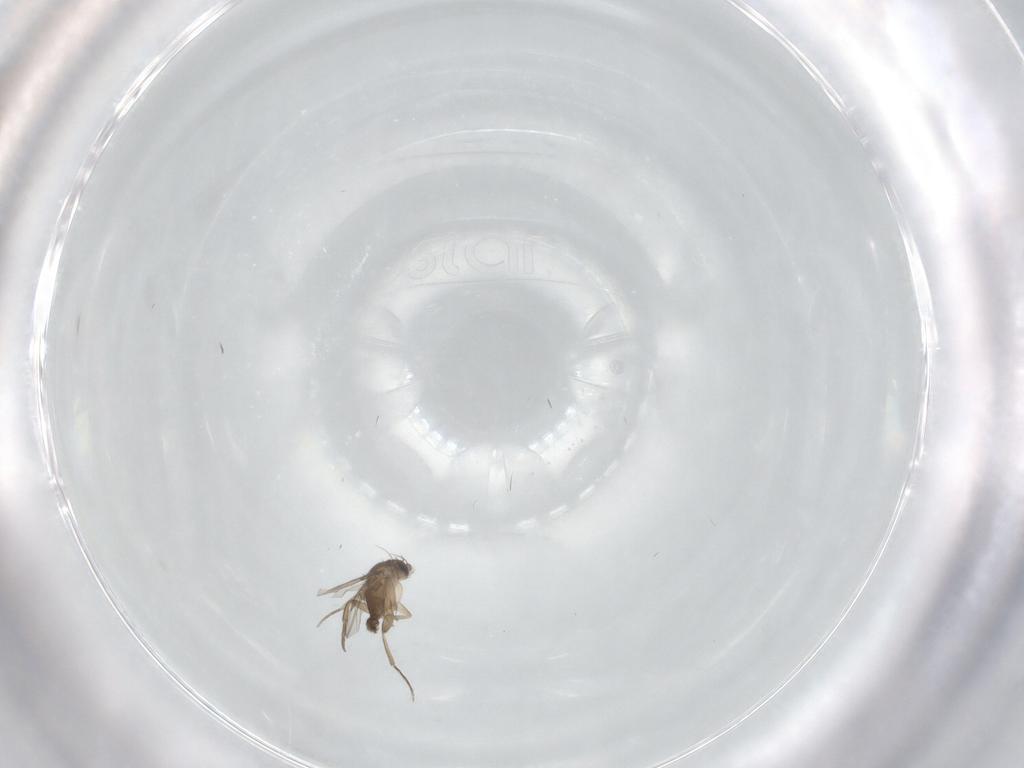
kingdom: Animalia
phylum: Arthropoda
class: Insecta
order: Diptera
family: Phoridae
